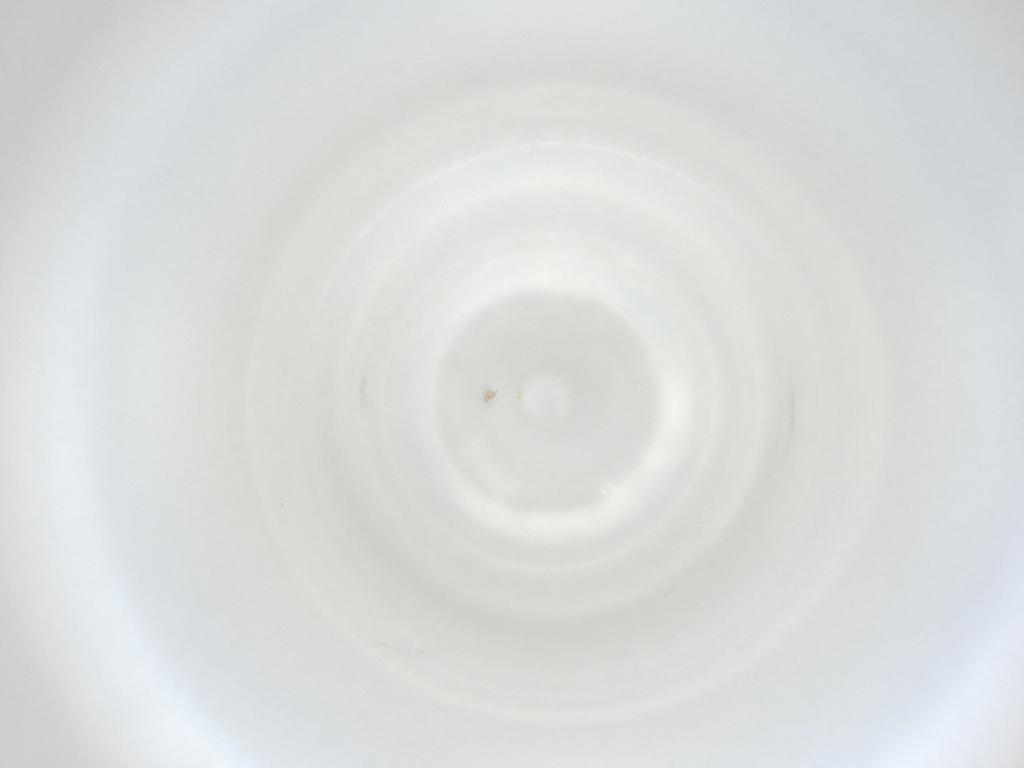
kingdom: Animalia
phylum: Arthropoda
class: Insecta
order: Diptera
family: Cecidomyiidae
